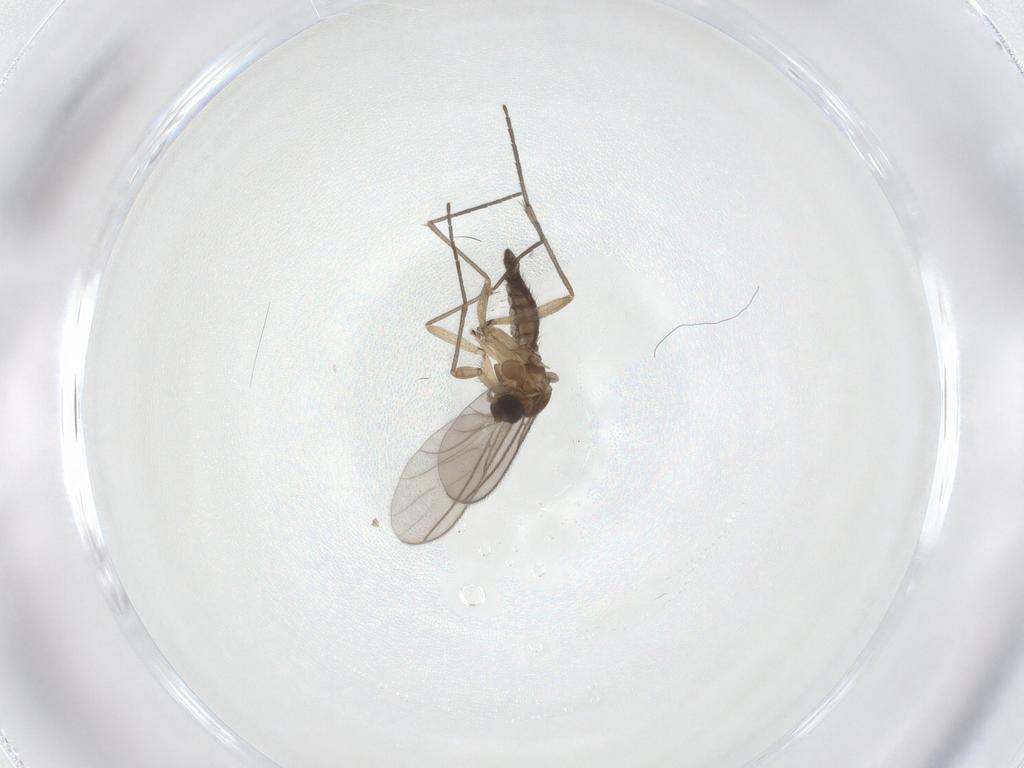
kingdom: Animalia
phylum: Arthropoda
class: Insecta
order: Diptera
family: Sciaridae
